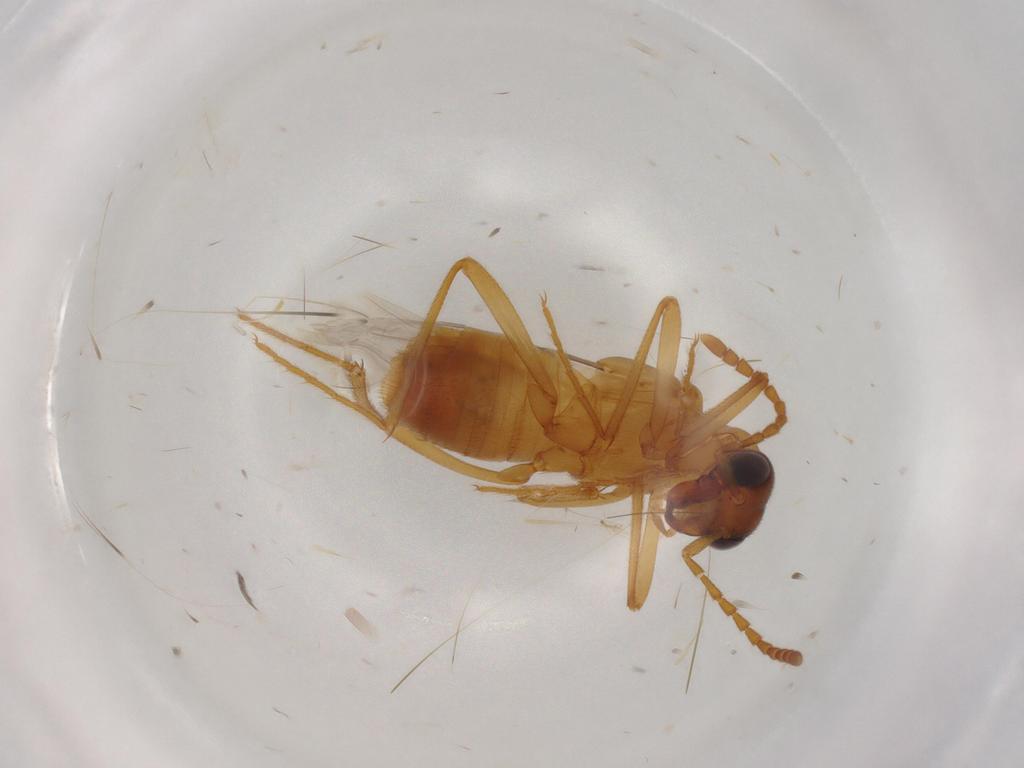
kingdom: Animalia
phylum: Arthropoda
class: Insecta
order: Coleoptera
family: Staphylinidae
